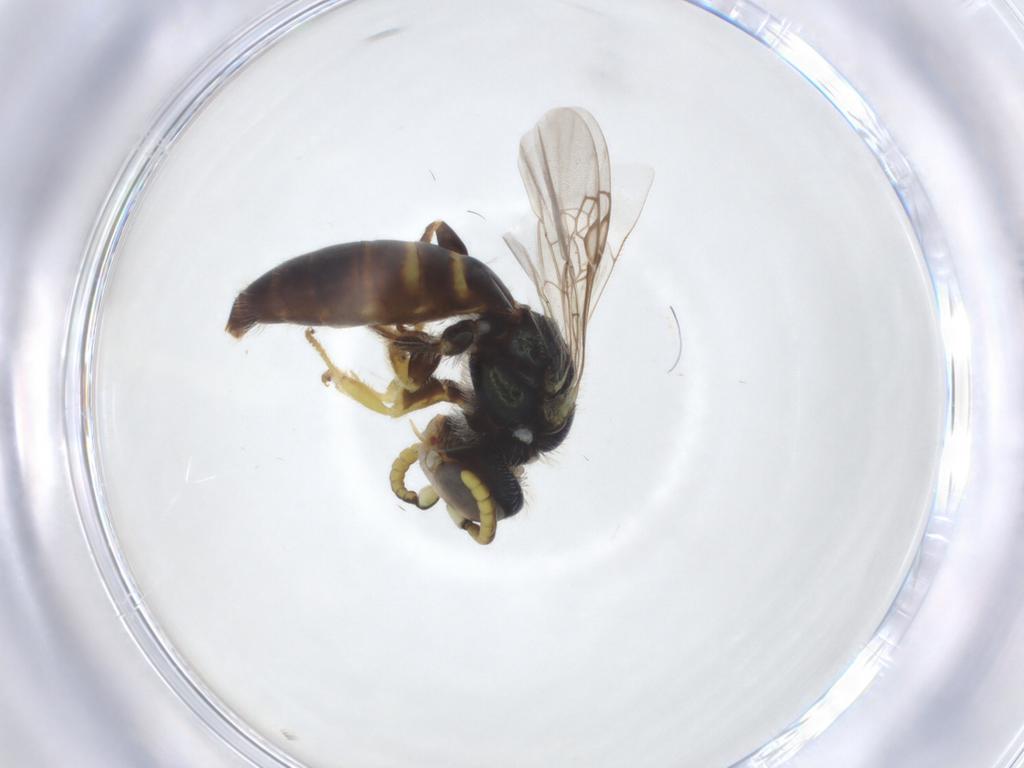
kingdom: Animalia
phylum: Arthropoda
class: Insecta
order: Hymenoptera
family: Andrenidae
